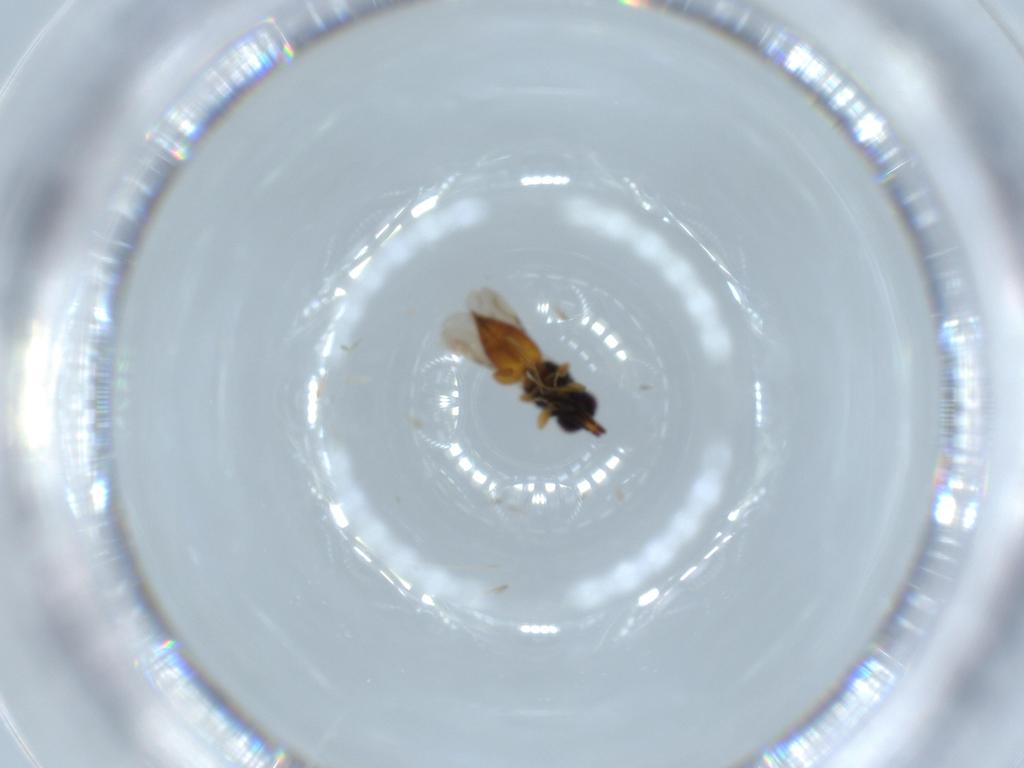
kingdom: Animalia
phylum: Arthropoda
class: Insecta
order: Hymenoptera
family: Ceraphronidae
